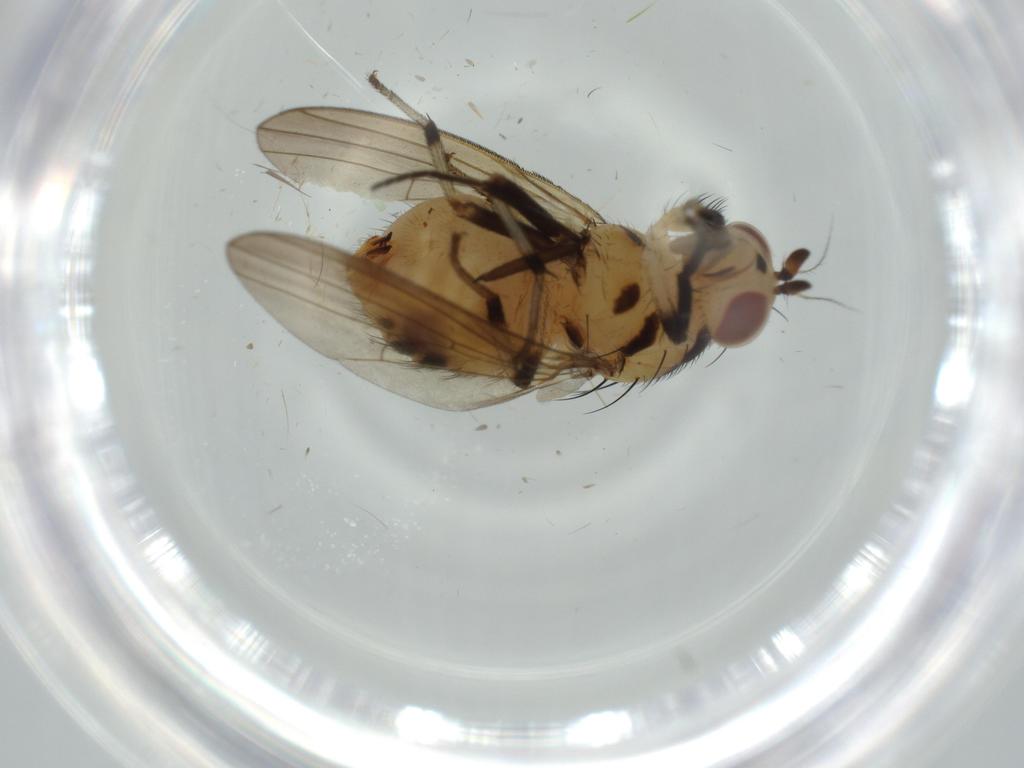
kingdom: Animalia
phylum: Arthropoda
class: Insecta
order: Diptera
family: Lauxaniidae
